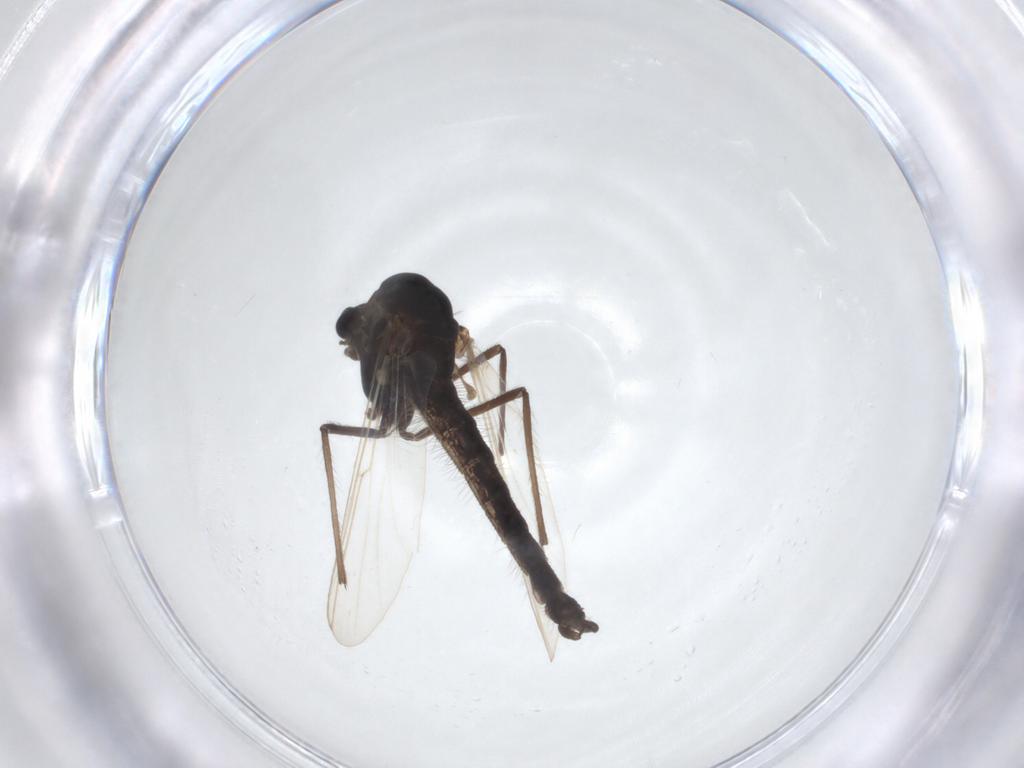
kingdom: Animalia
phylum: Arthropoda
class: Insecta
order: Diptera
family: Chironomidae
